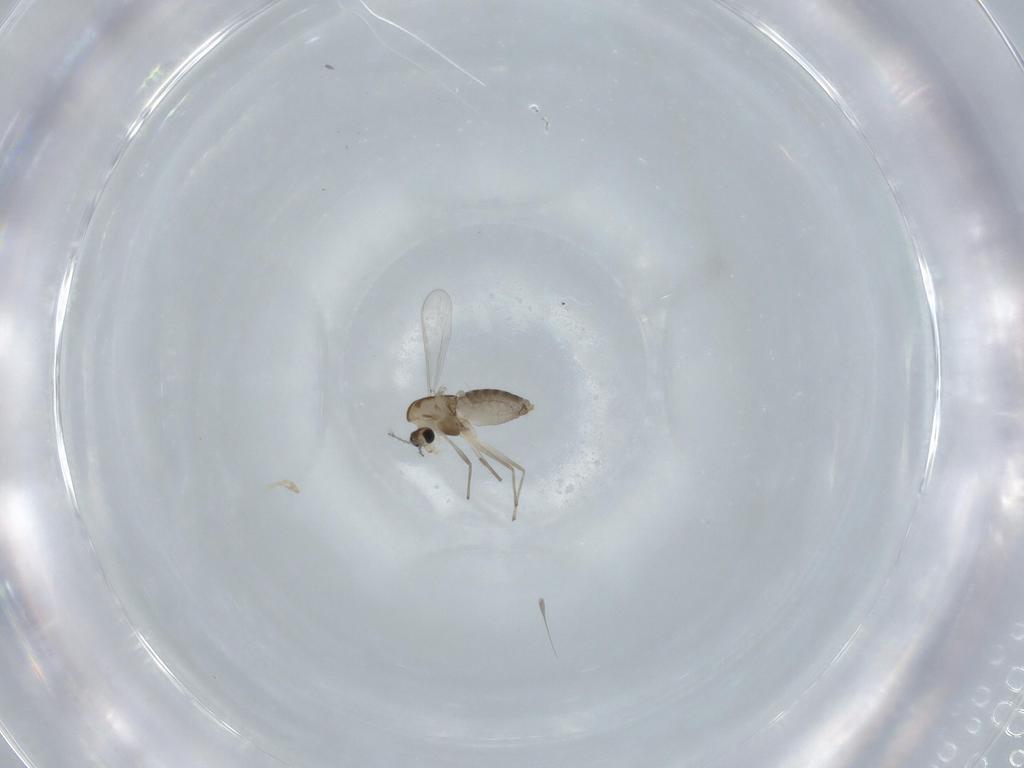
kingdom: Animalia
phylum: Arthropoda
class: Insecta
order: Diptera
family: Chironomidae
